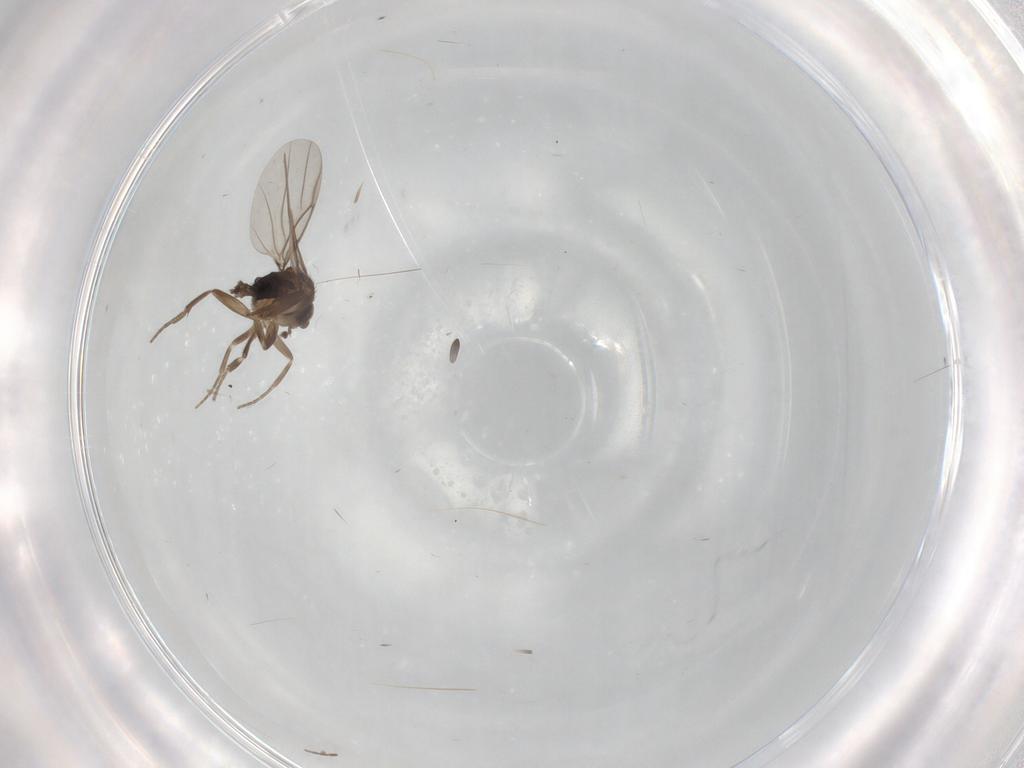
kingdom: Animalia
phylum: Arthropoda
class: Insecta
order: Diptera
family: Phoridae
